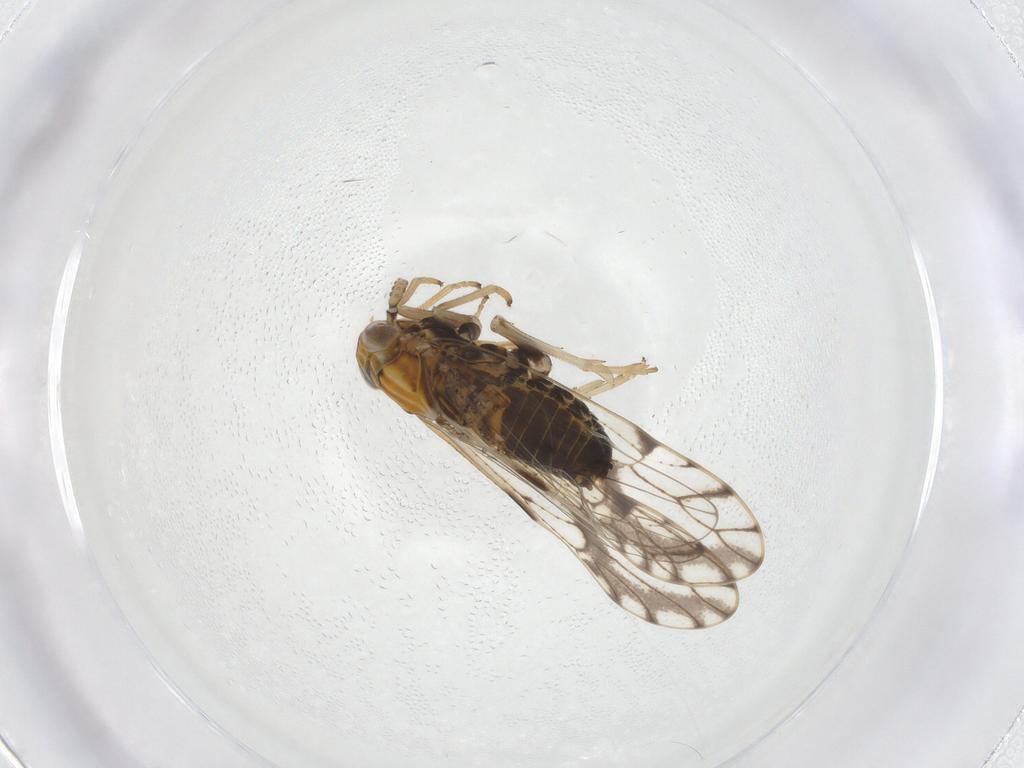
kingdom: Animalia
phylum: Arthropoda
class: Insecta
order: Hemiptera
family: Delphacidae
